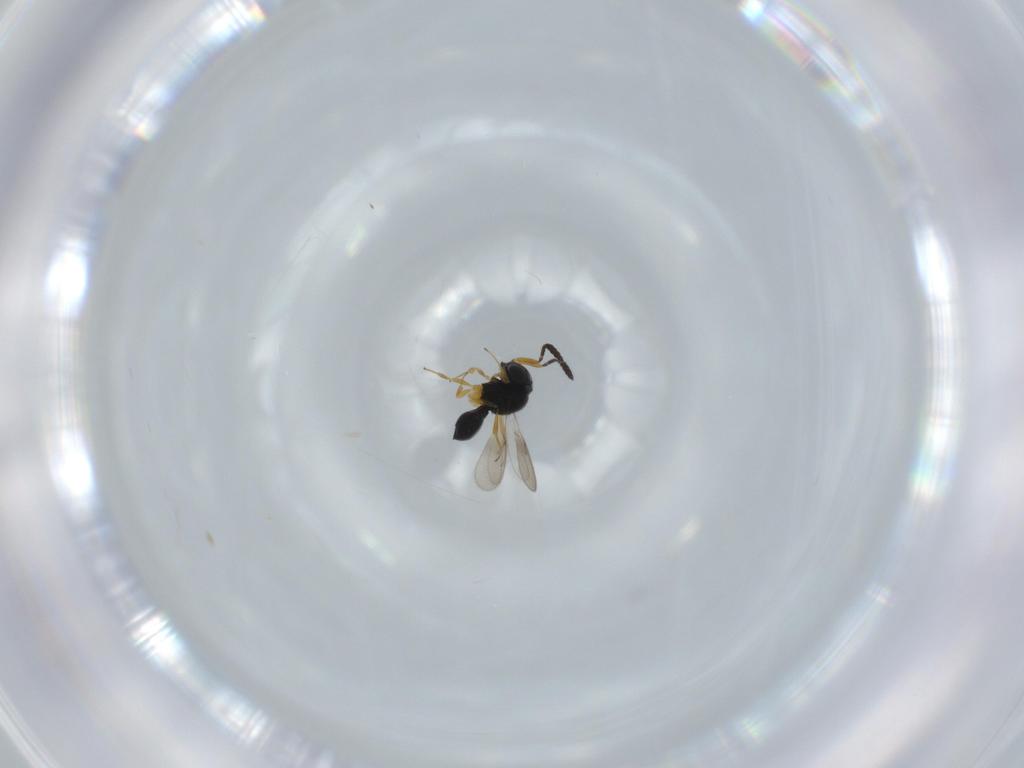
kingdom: Animalia
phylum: Arthropoda
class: Insecta
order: Hymenoptera
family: Scelionidae
